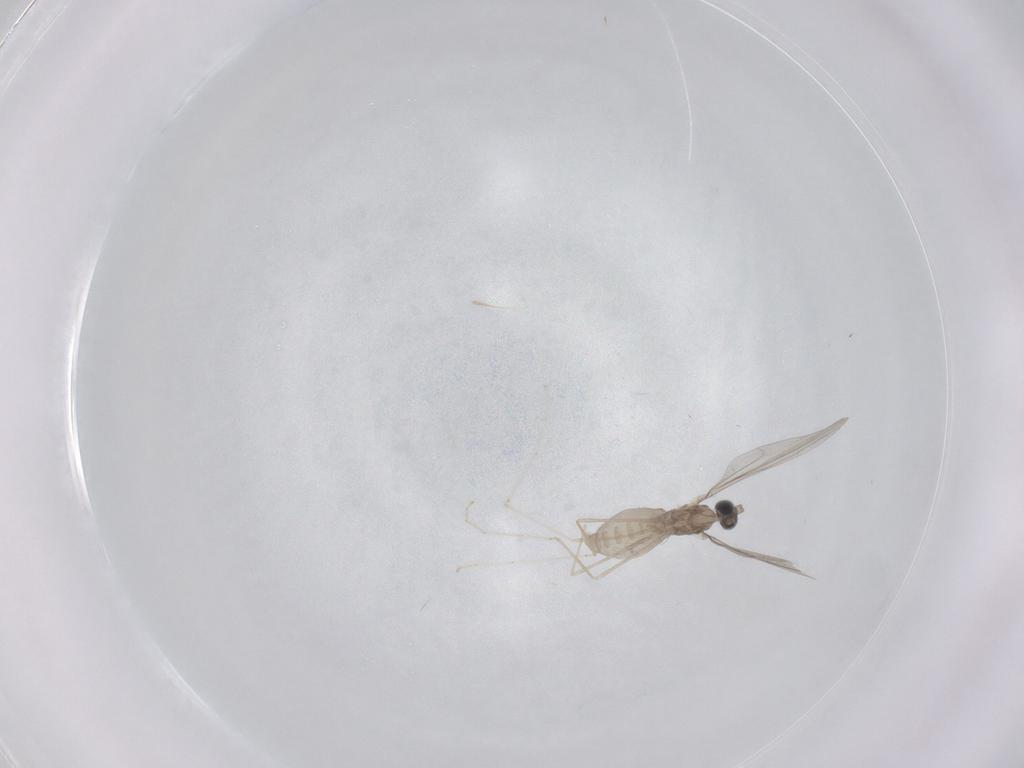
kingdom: Animalia
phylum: Arthropoda
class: Insecta
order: Diptera
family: Cecidomyiidae
